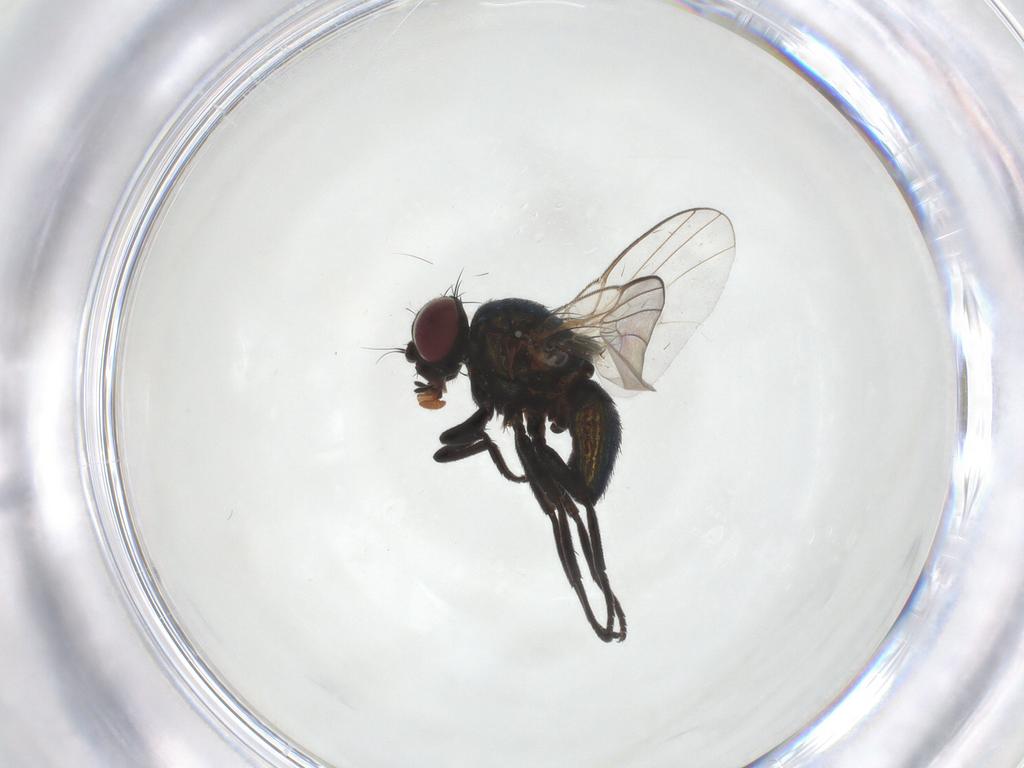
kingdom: Animalia
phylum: Arthropoda
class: Insecta
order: Diptera
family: Agromyzidae
